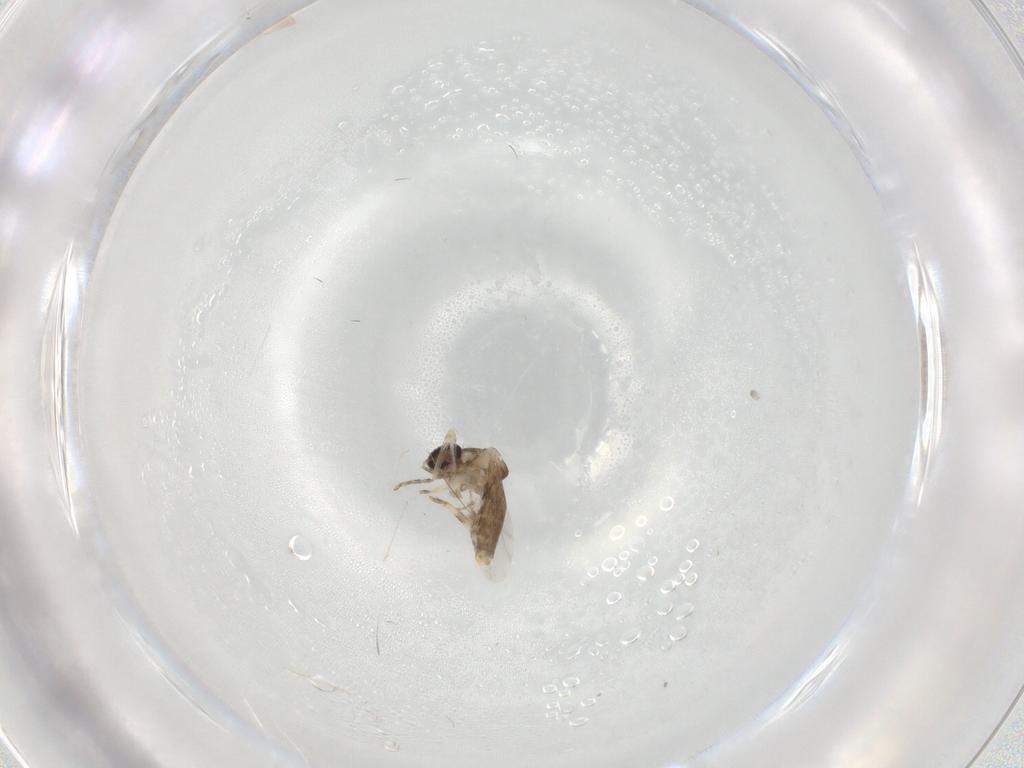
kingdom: Animalia
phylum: Arthropoda
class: Insecta
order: Diptera
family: Ceratopogonidae
